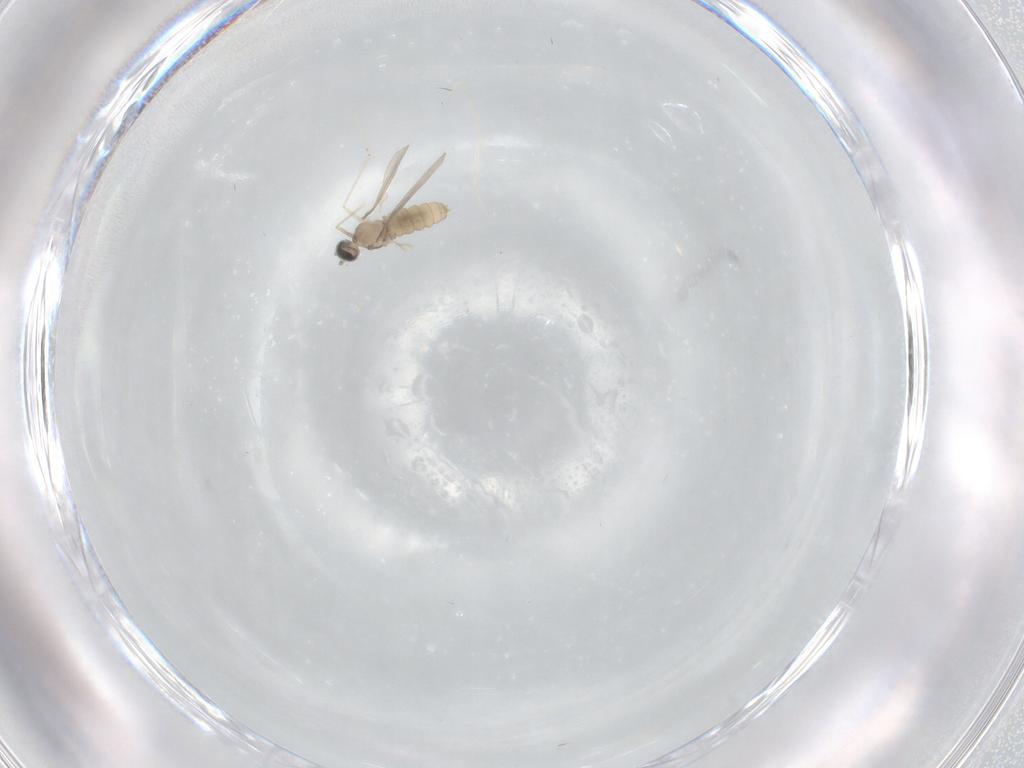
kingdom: Animalia
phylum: Arthropoda
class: Insecta
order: Diptera
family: Cecidomyiidae
